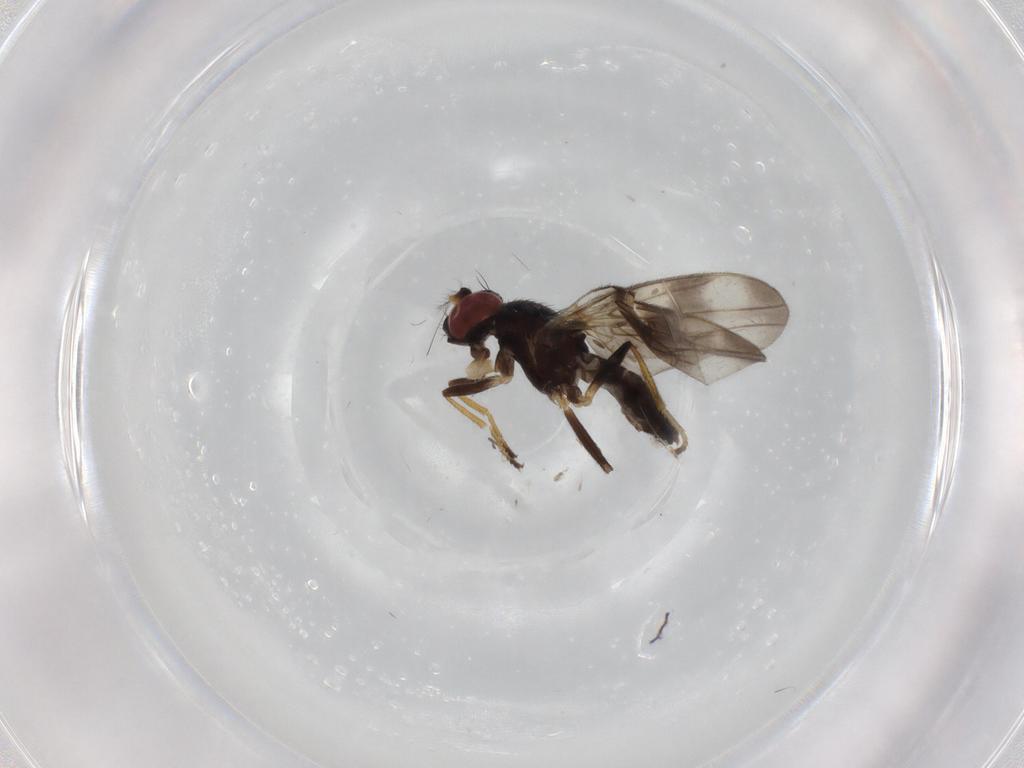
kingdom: Animalia
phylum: Arthropoda
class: Insecta
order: Diptera
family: Periscelididae
